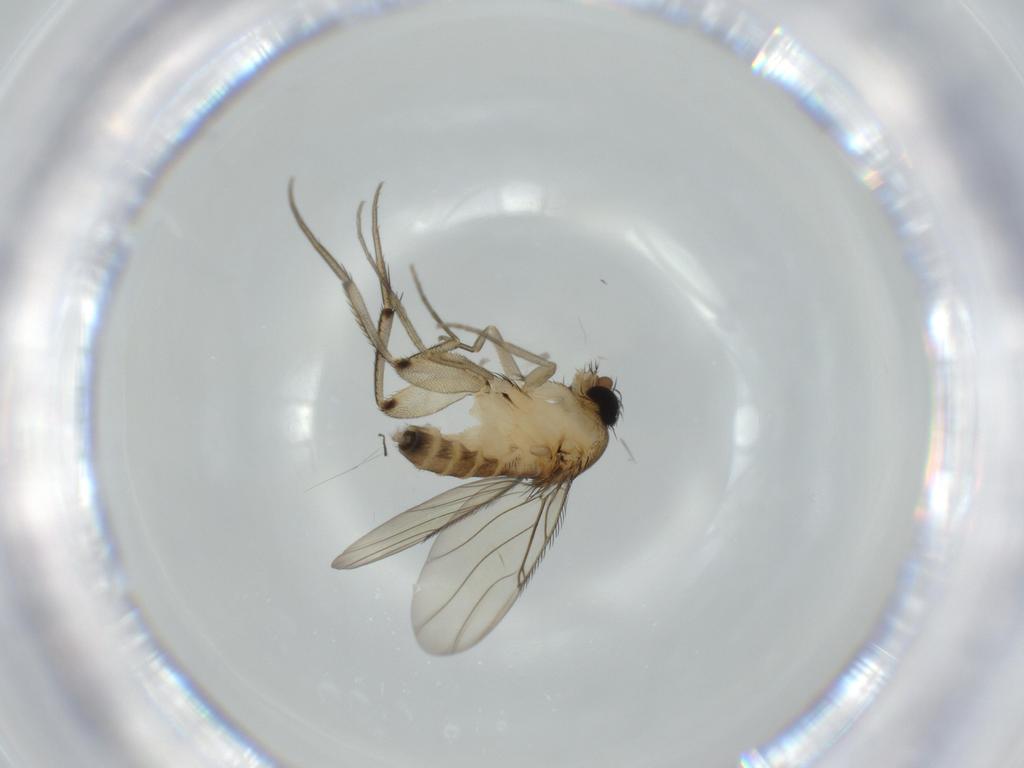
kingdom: Animalia
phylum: Arthropoda
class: Insecta
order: Diptera
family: Phoridae
